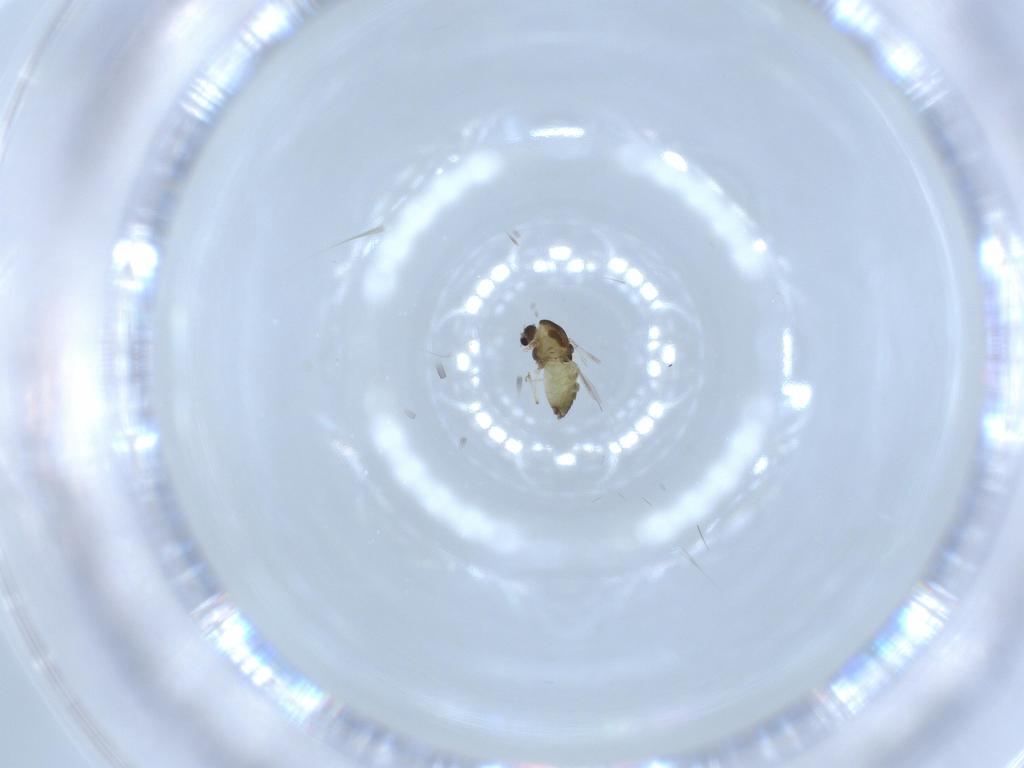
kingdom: Animalia
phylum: Arthropoda
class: Insecta
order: Diptera
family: Chironomidae
